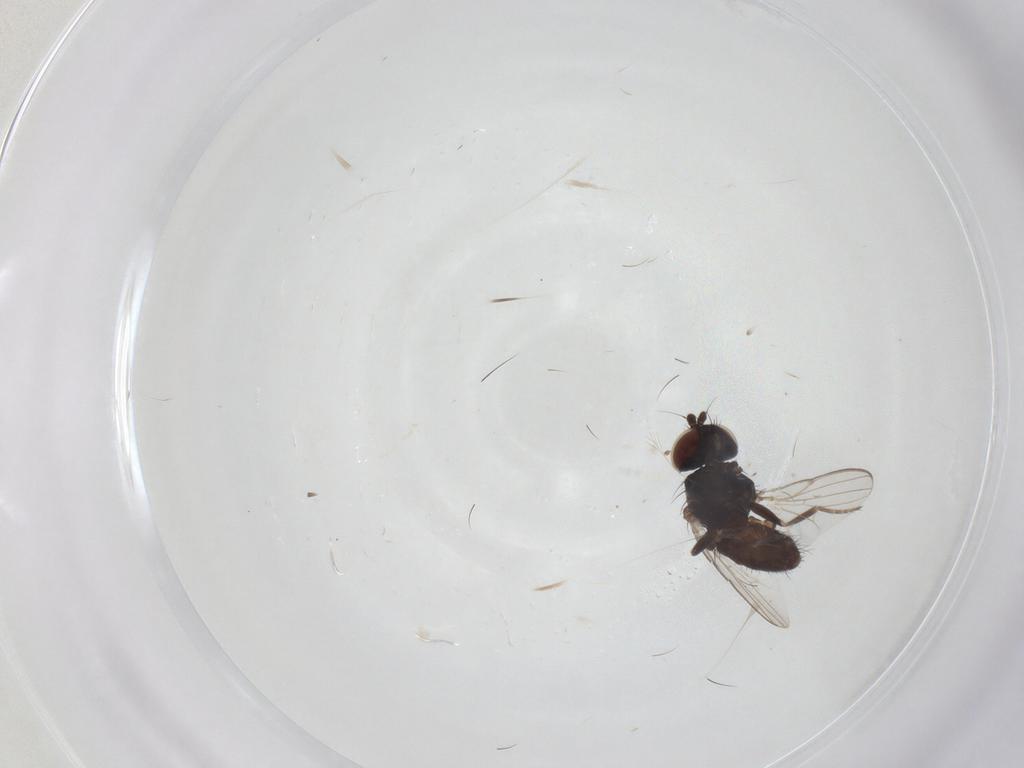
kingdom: Animalia
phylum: Arthropoda
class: Insecta
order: Diptera
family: Milichiidae
